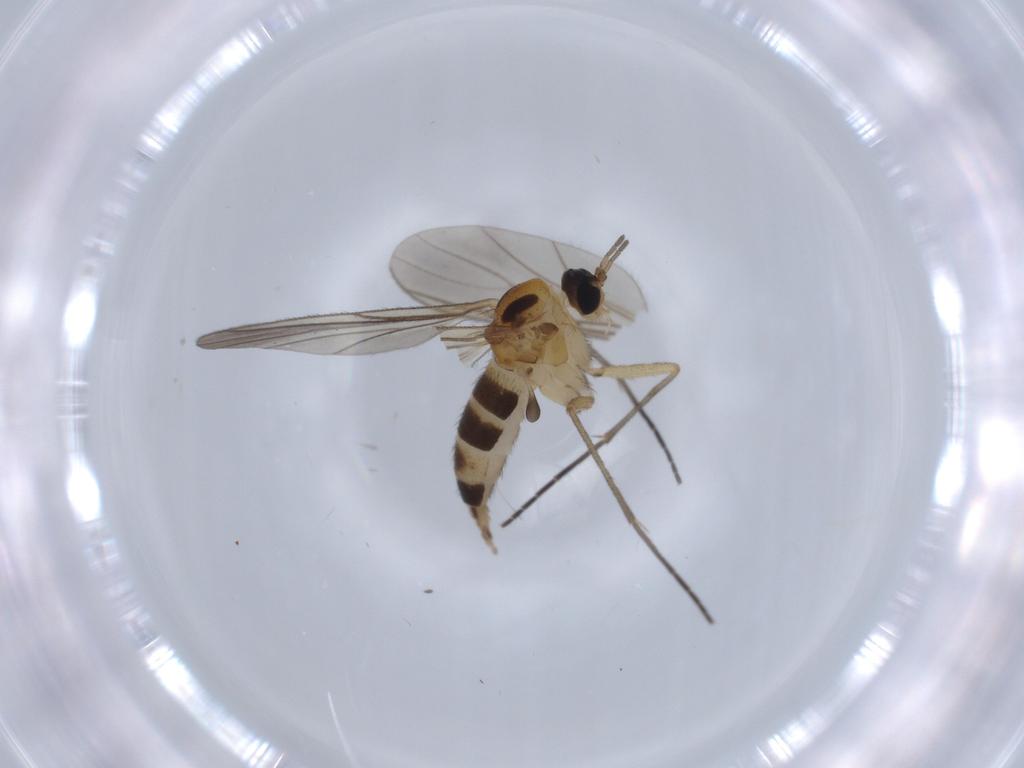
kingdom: Animalia
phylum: Arthropoda
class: Insecta
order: Diptera
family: Sciaridae
